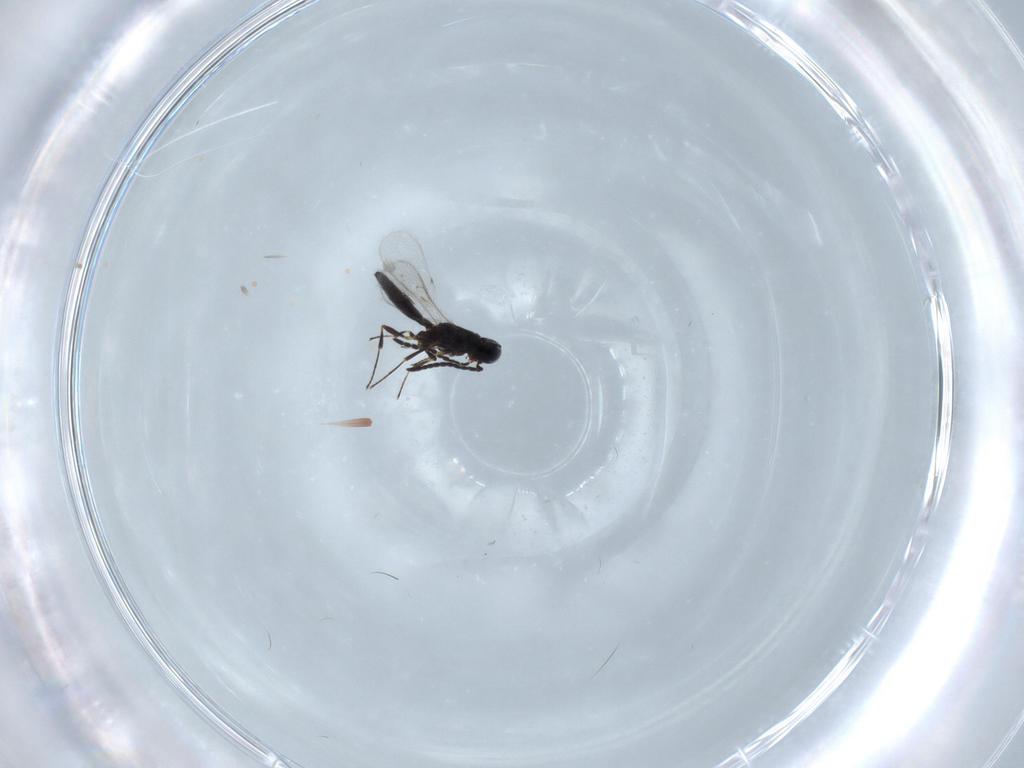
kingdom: Animalia
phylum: Arthropoda
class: Insecta
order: Hymenoptera
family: Scelionidae
